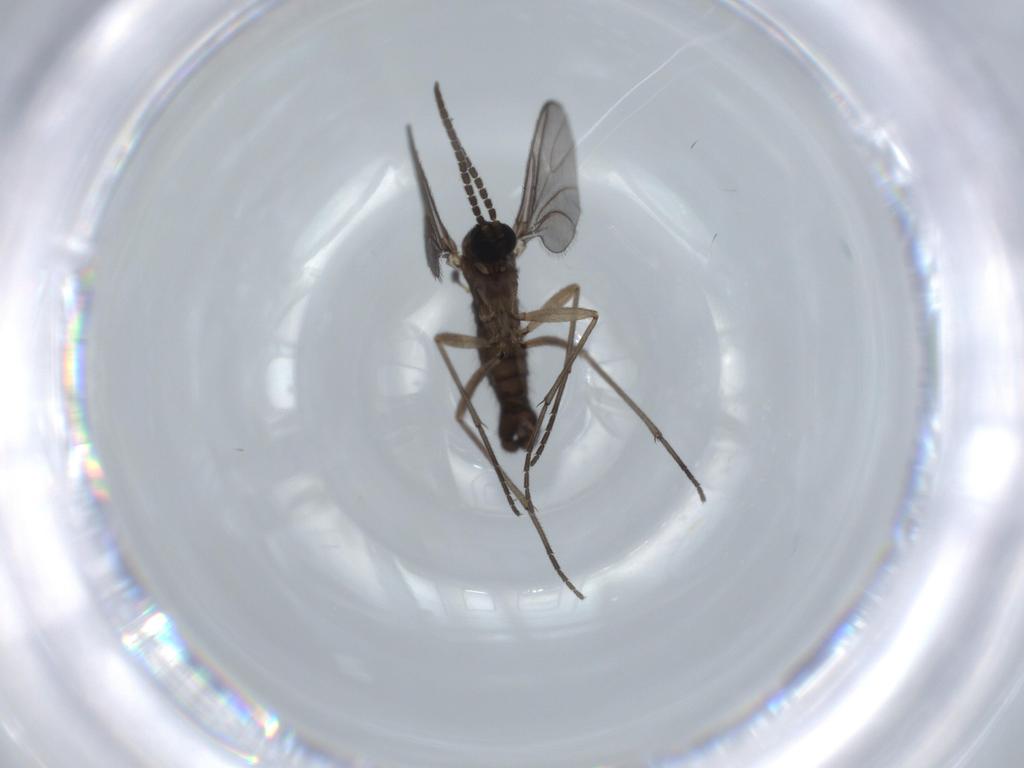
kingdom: Animalia
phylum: Arthropoda
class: Insecta
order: Diptera
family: Sciaridae
